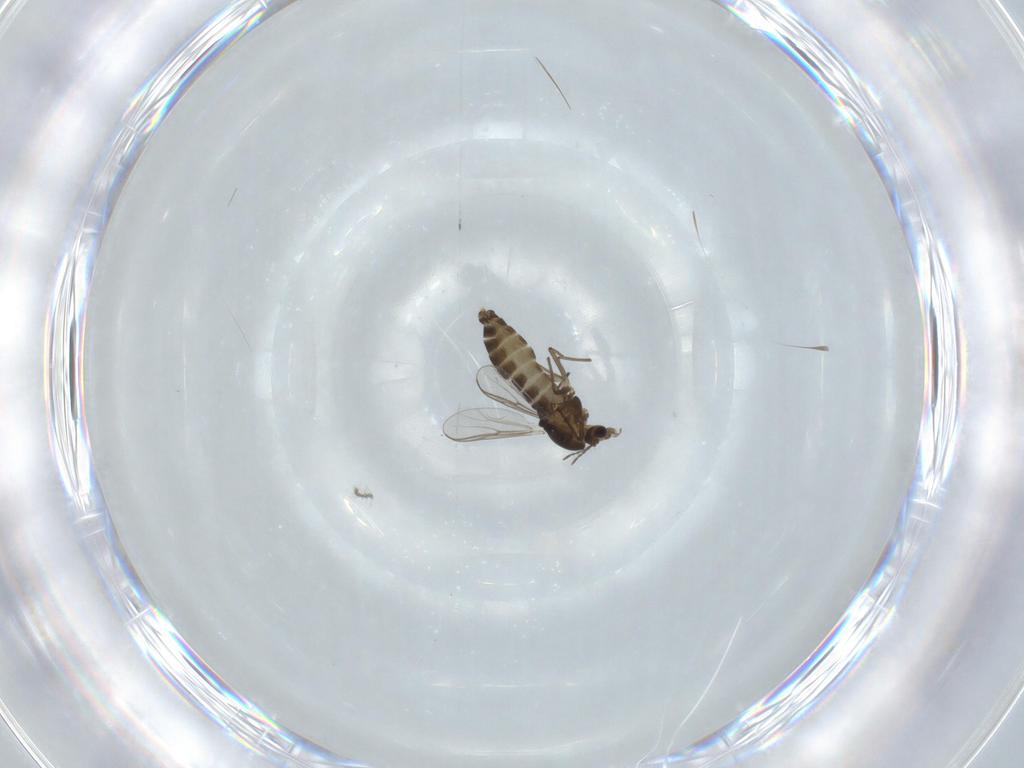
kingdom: Animalia
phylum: Arthropoda
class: Insecta
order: Diptera
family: Chironomidae
